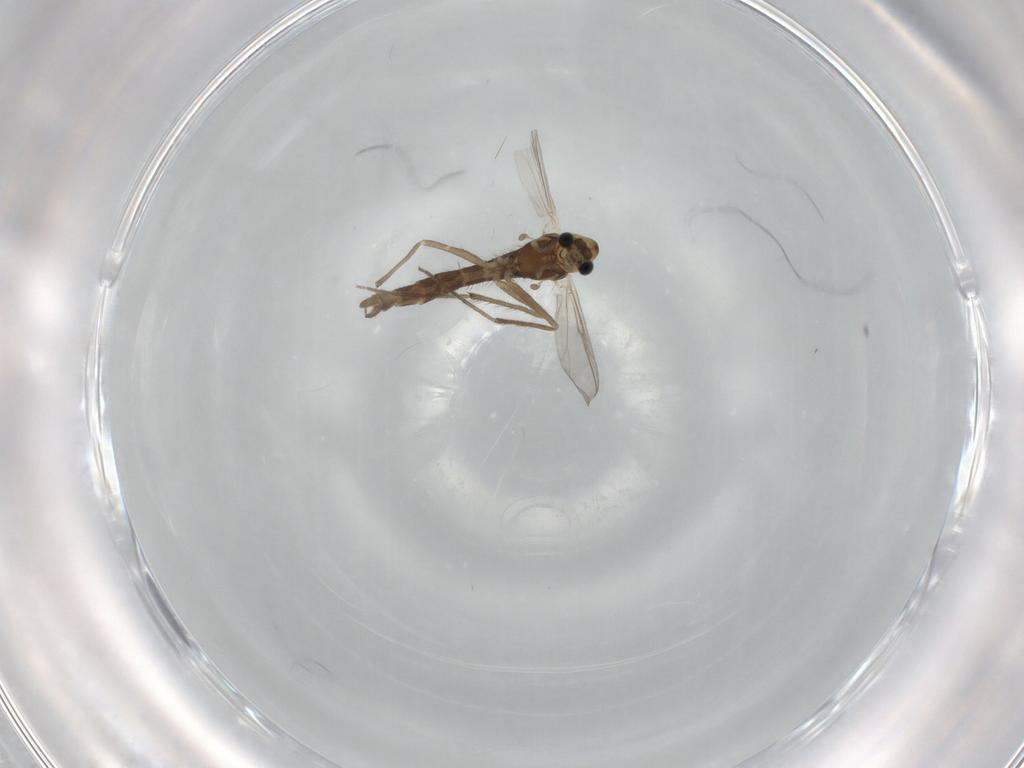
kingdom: Animalia
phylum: Arthropoda
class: Insecta
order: Diptera
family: Chironomidae
